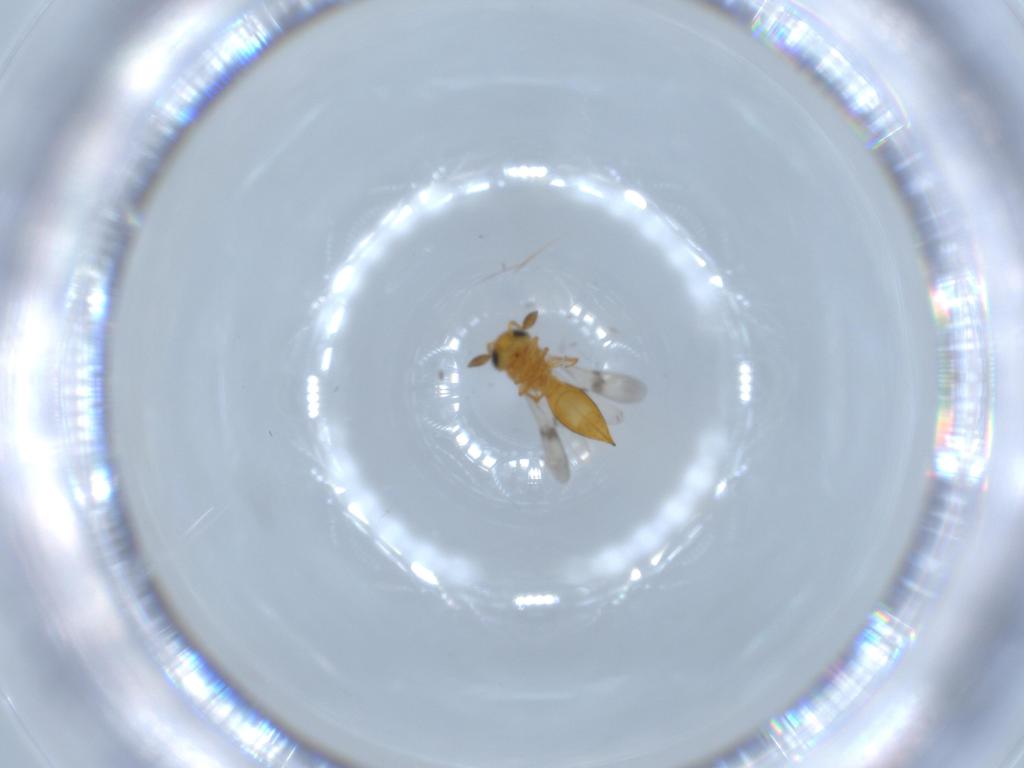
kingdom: Animalia
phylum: Arthropoda
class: Insecta
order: Hymenoptera
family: Scelionidae
